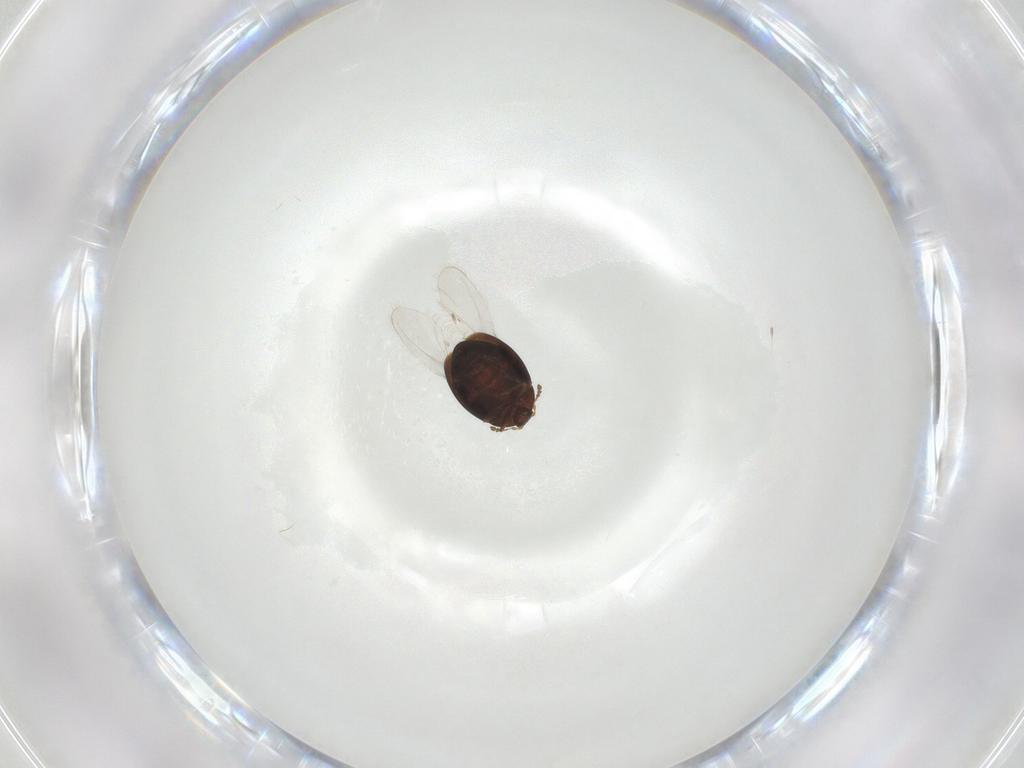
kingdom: Animalia
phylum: Arthropoda
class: Insecta
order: Coleoptera
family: Corylophidae
